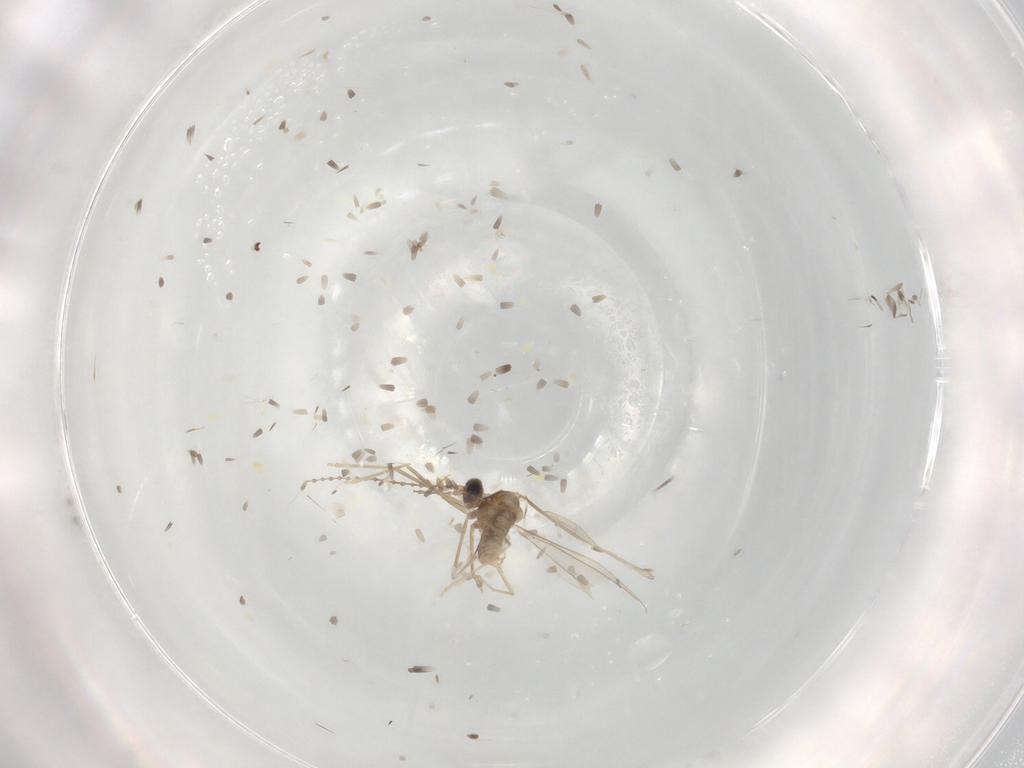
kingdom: Animalia
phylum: Arthropoda
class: Insecta
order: Diptera
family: Cecidomyiidae
